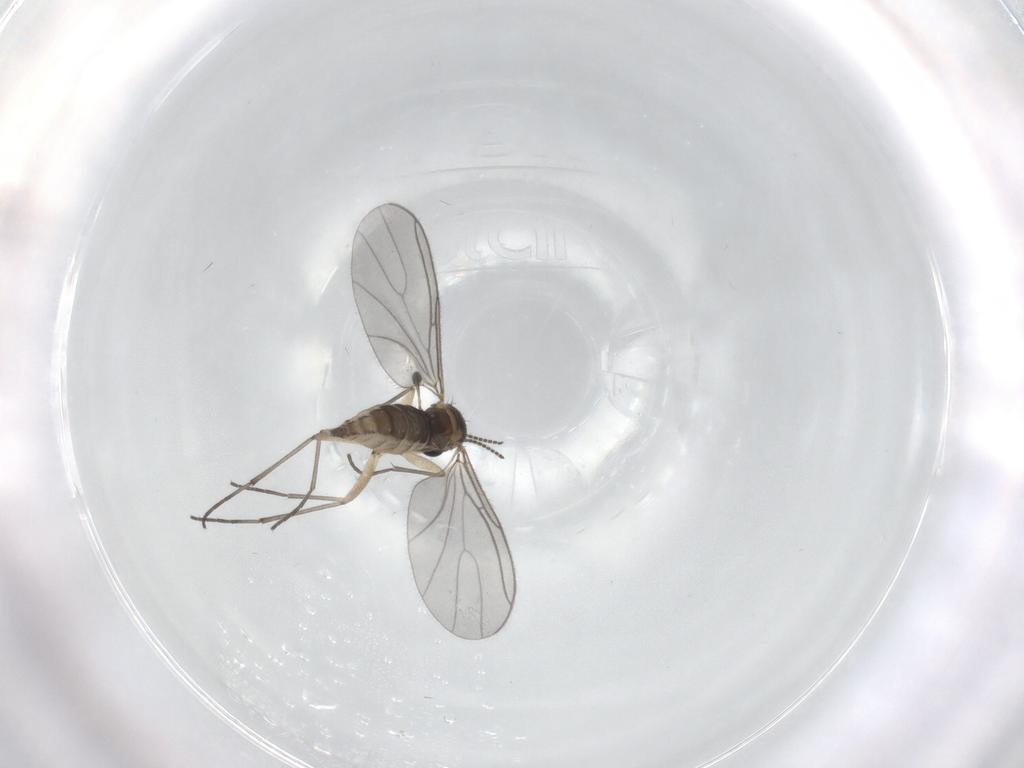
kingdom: Animalia
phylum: Arthropoda
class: Insecta
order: Diptera
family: Sciaridae
